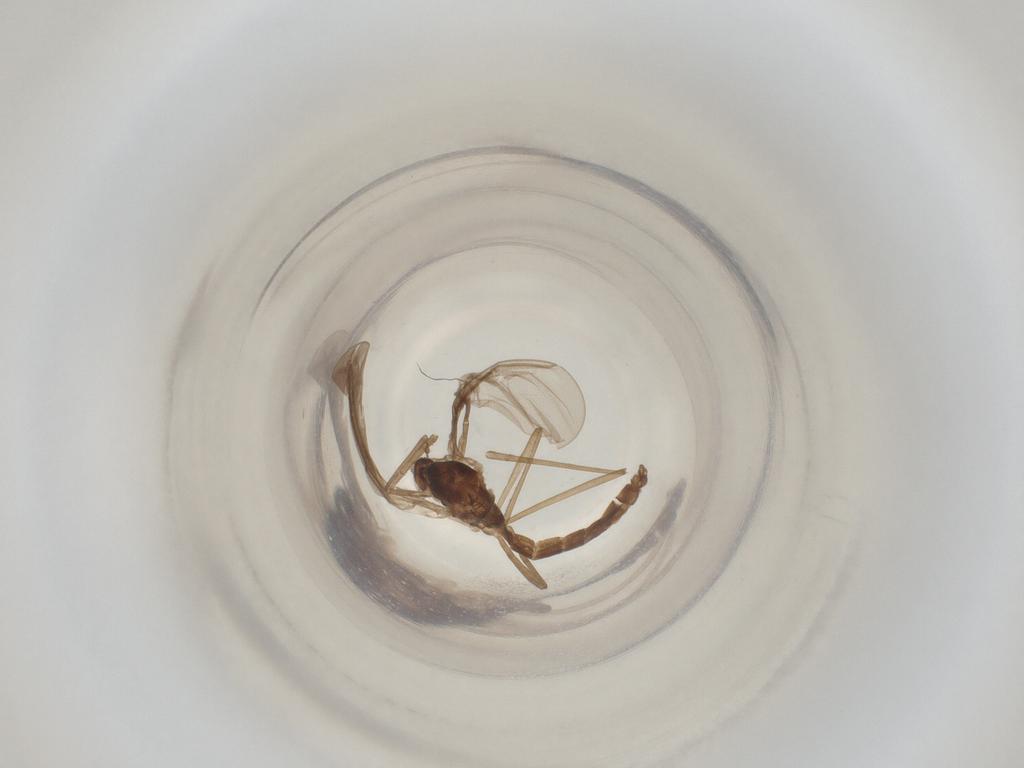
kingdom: Animalia
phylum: Arthropoda
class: Insecta
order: Diptera
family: Cecidomyiidae
